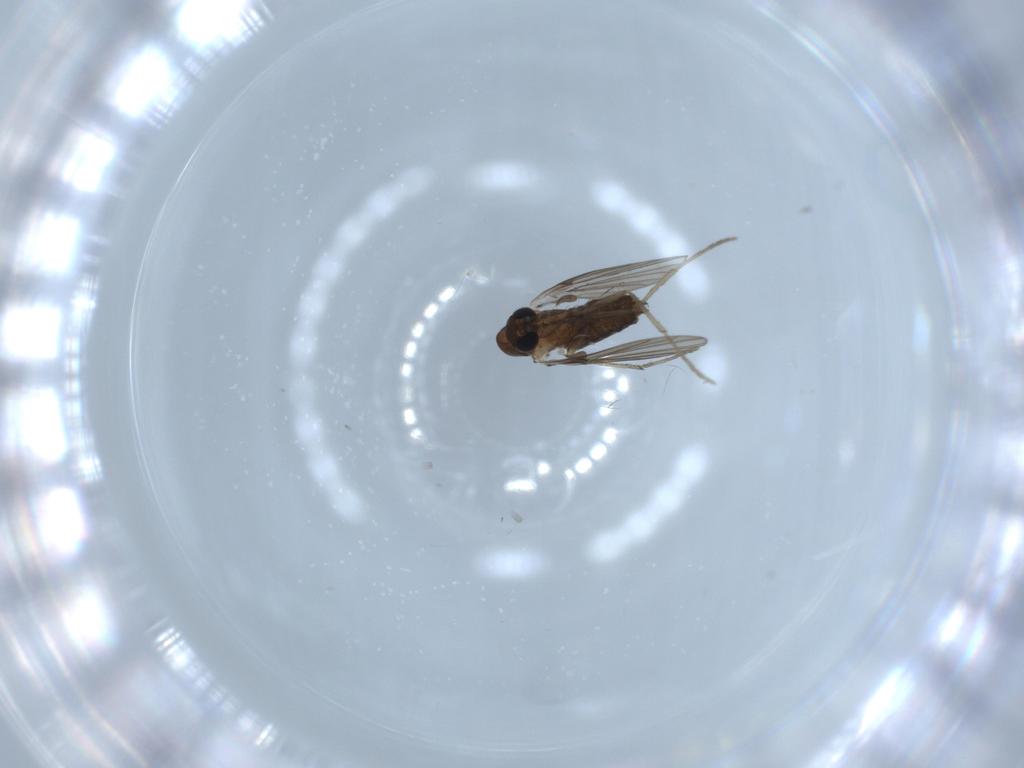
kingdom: Animalia
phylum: Arthropoda
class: Insecta
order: Diptera
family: Psychodidae
